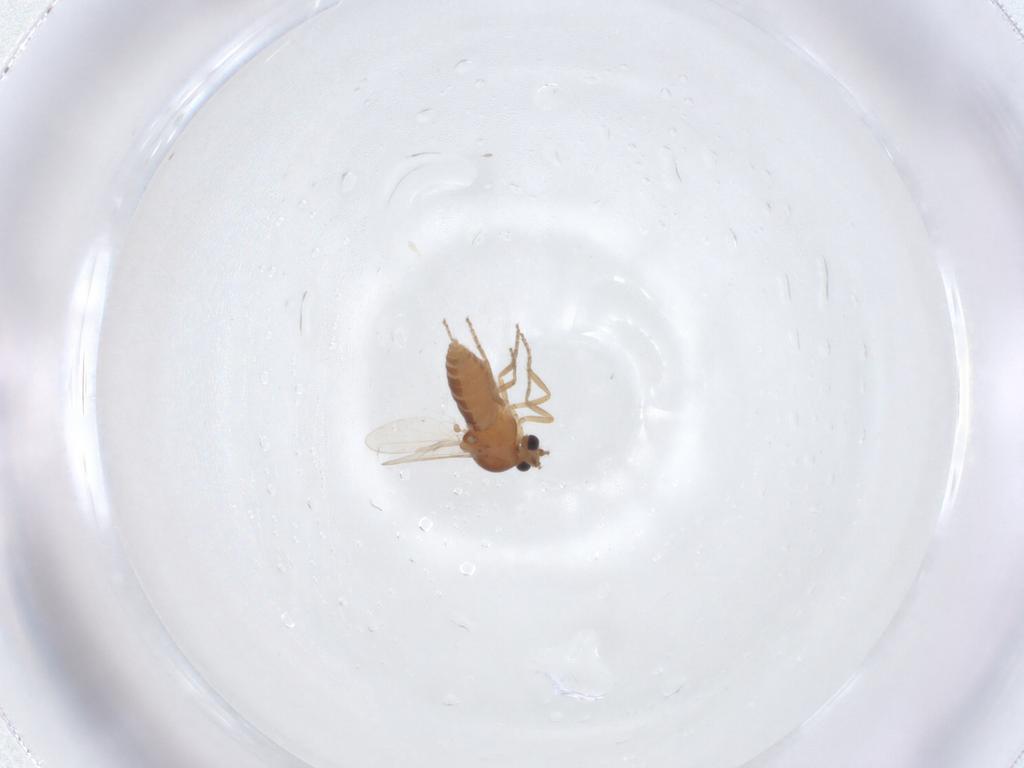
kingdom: Animalia
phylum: Arthropoda
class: Insecta
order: Diptera
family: Ceratopogonidae
